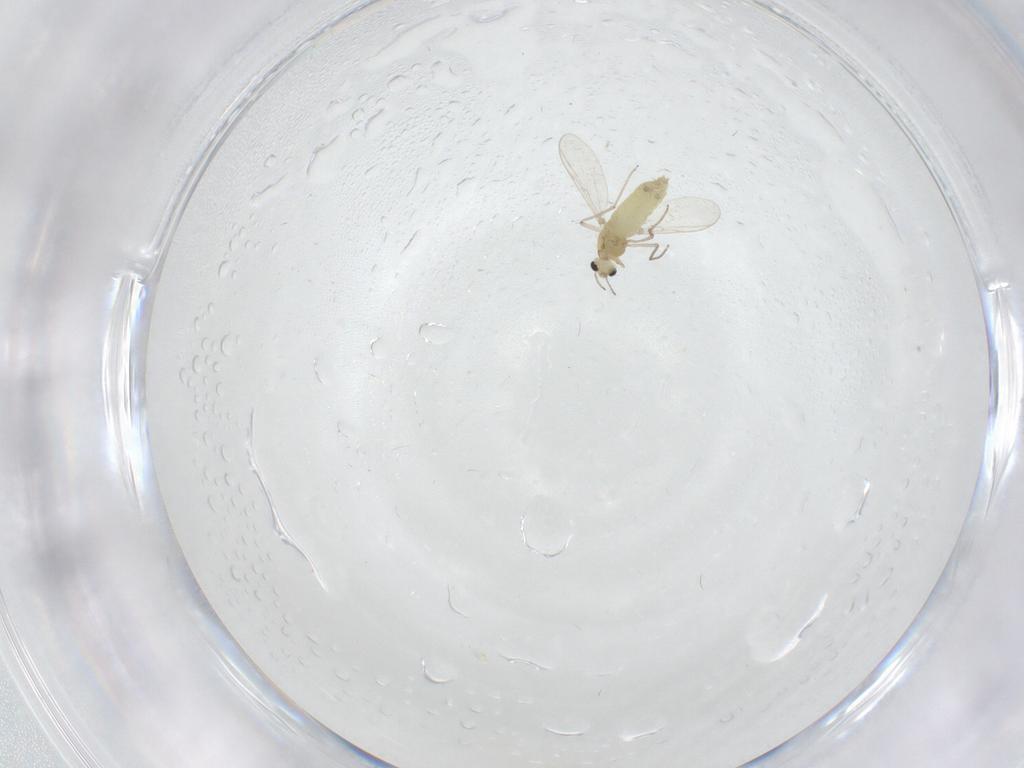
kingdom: Animalia
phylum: Arthropoda
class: Insecta
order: Diptera
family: Chironomidae
